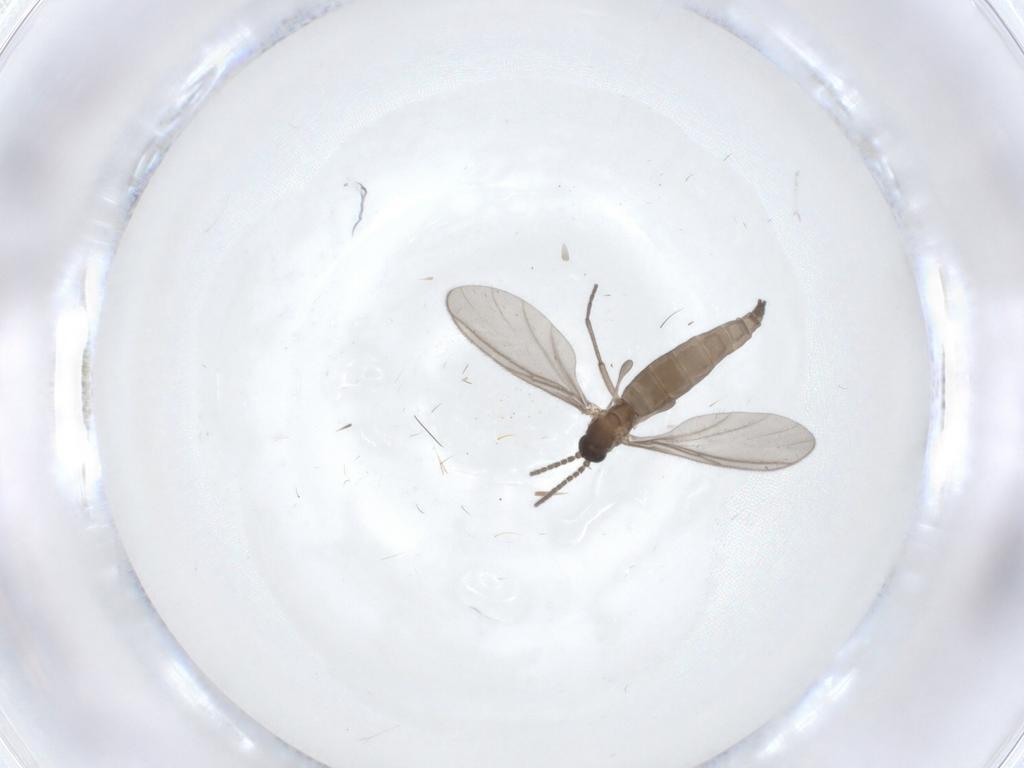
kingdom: Animalia
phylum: Arthropoda
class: Insecta
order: Diptera
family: Sciaridae
